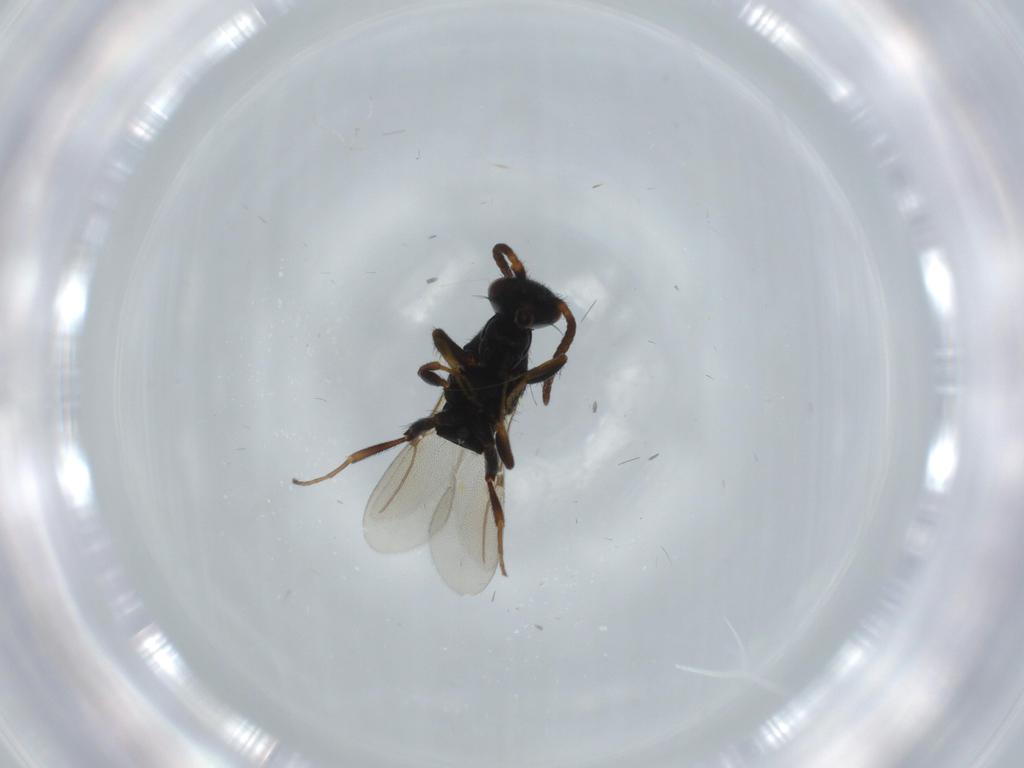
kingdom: Animalia
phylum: Arthropoda
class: Insecta
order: Hymenoptera
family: Bethylidae
